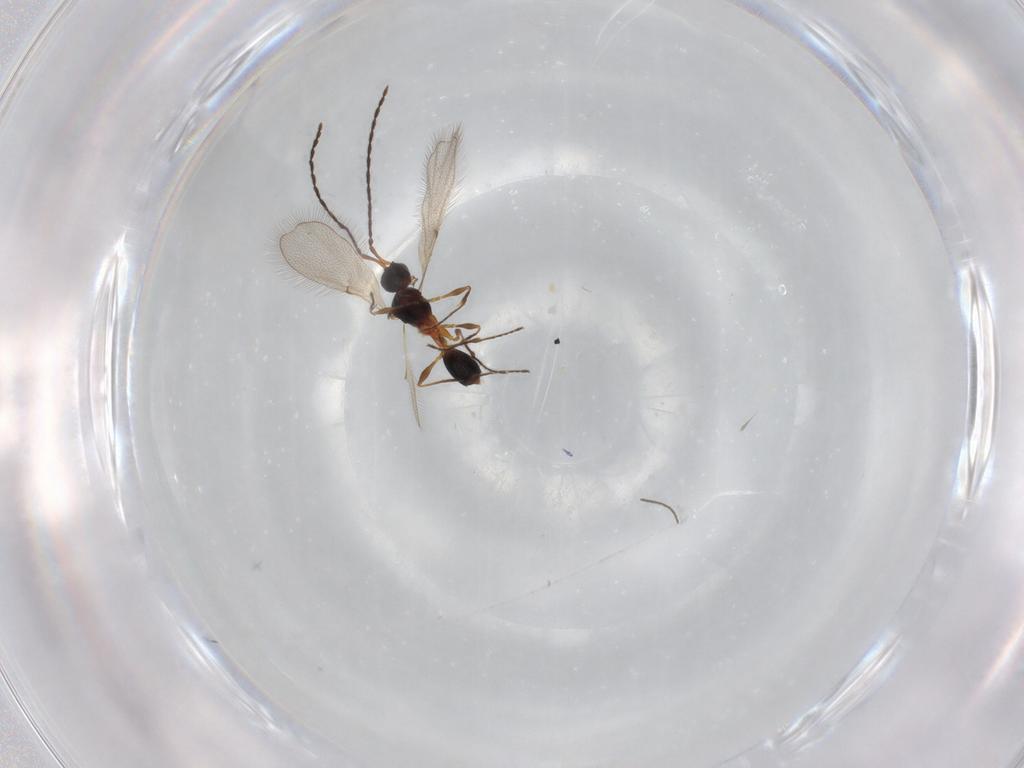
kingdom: Animalia
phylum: Arthropoda
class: Insecta
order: Hymenoptera
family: Diapriidae
